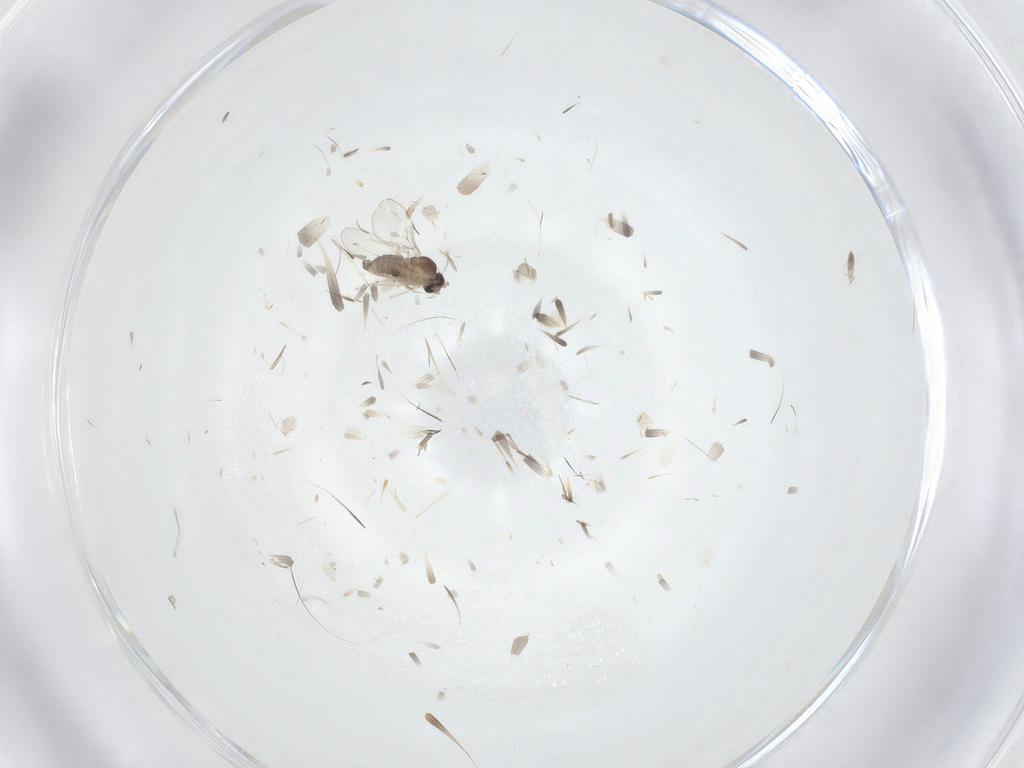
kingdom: Animalia
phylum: Arthropoda
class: Insecta
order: Diptera
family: Cecidomyiidae
